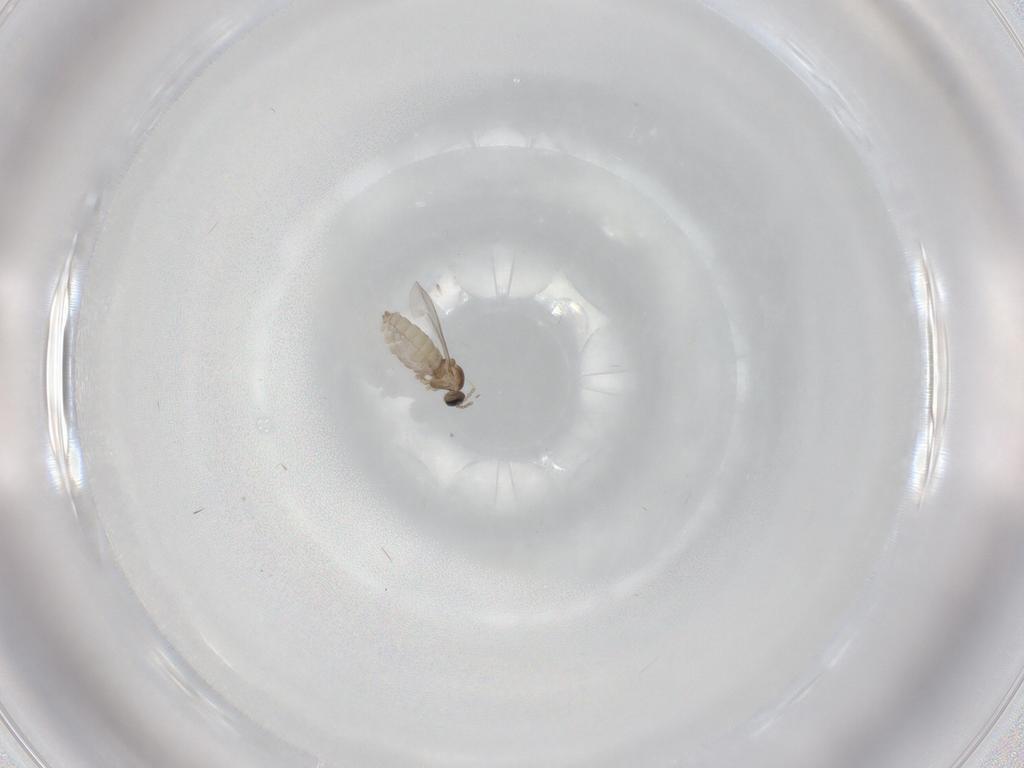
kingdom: Animalia
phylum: Arthropoda
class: Insecta
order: Diptera
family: Cecidomyiidae
